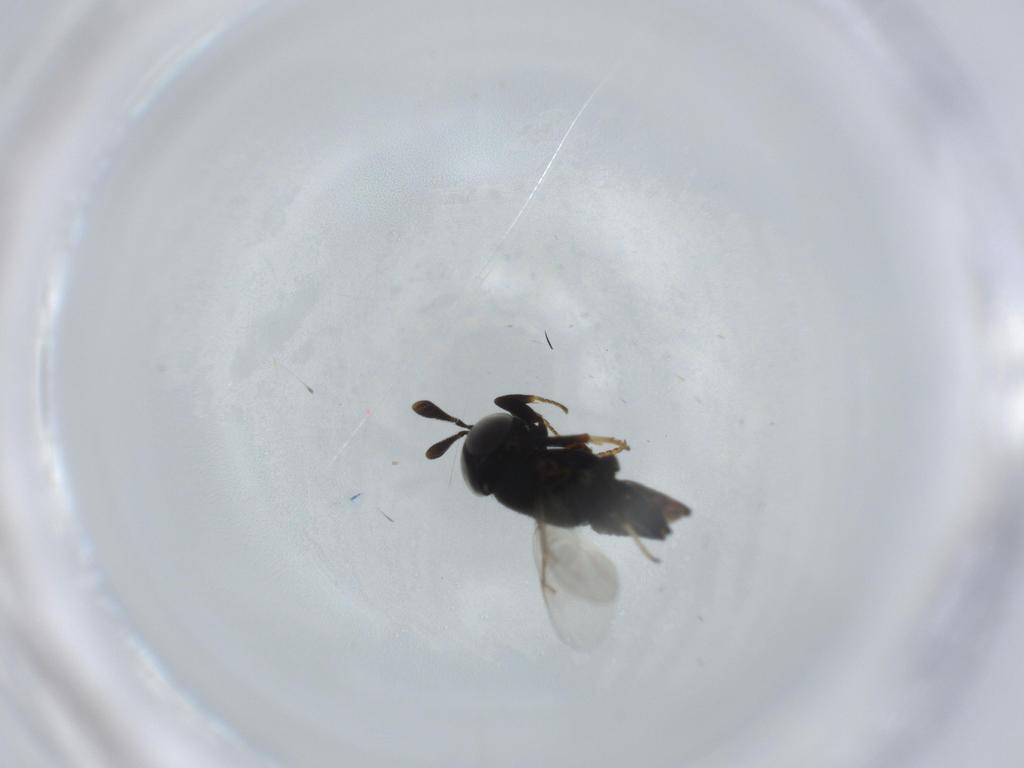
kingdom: Animalia
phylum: Arthropoda
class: Insecta
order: Hymenoptera
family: Encyrtidae
